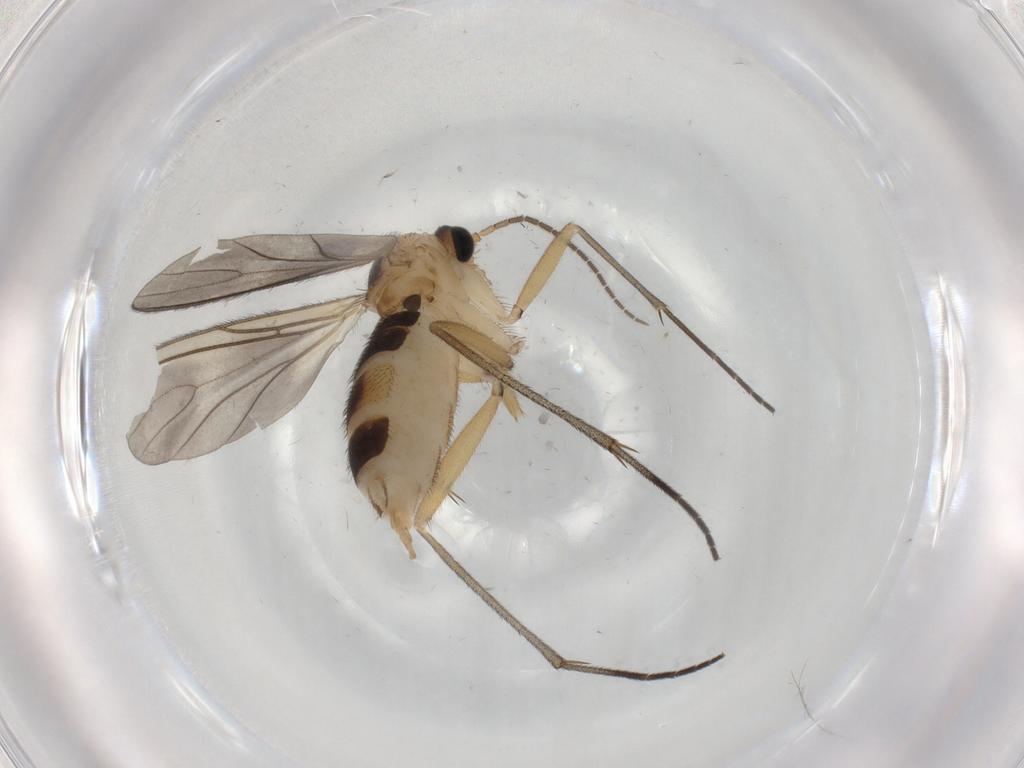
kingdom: Animalia
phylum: Arthropoda
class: Insecta
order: Diptera
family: Sciaridae
